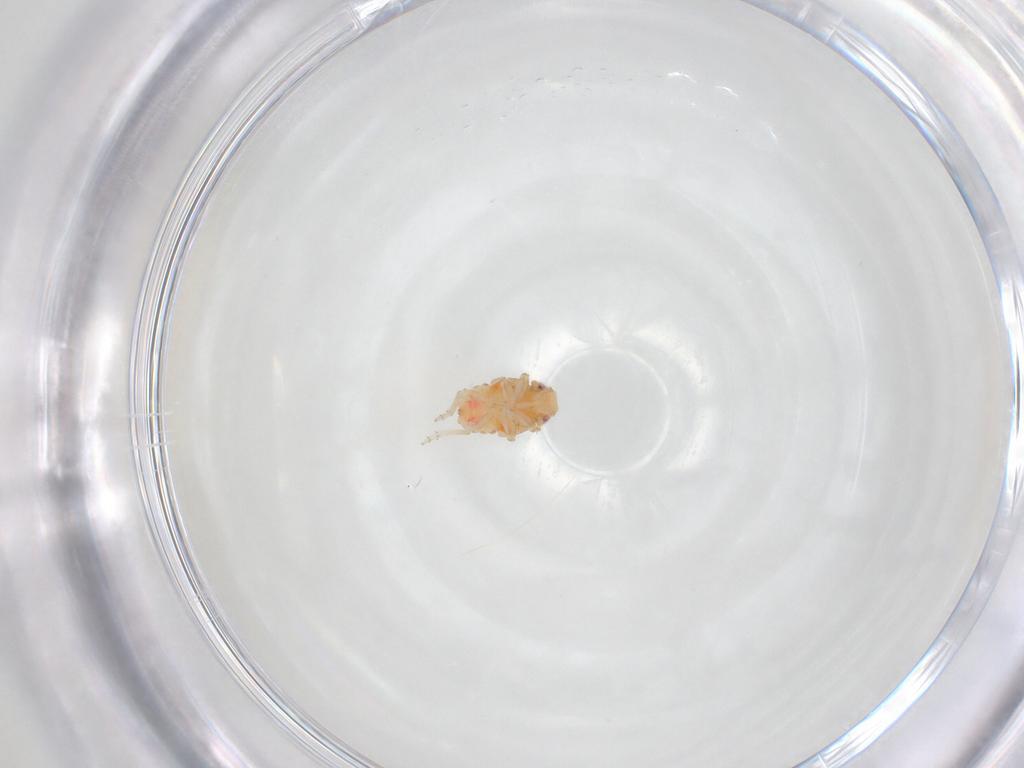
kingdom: Animalia
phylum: Arthropoda
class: Insecta
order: Hemiptera
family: Issidae
